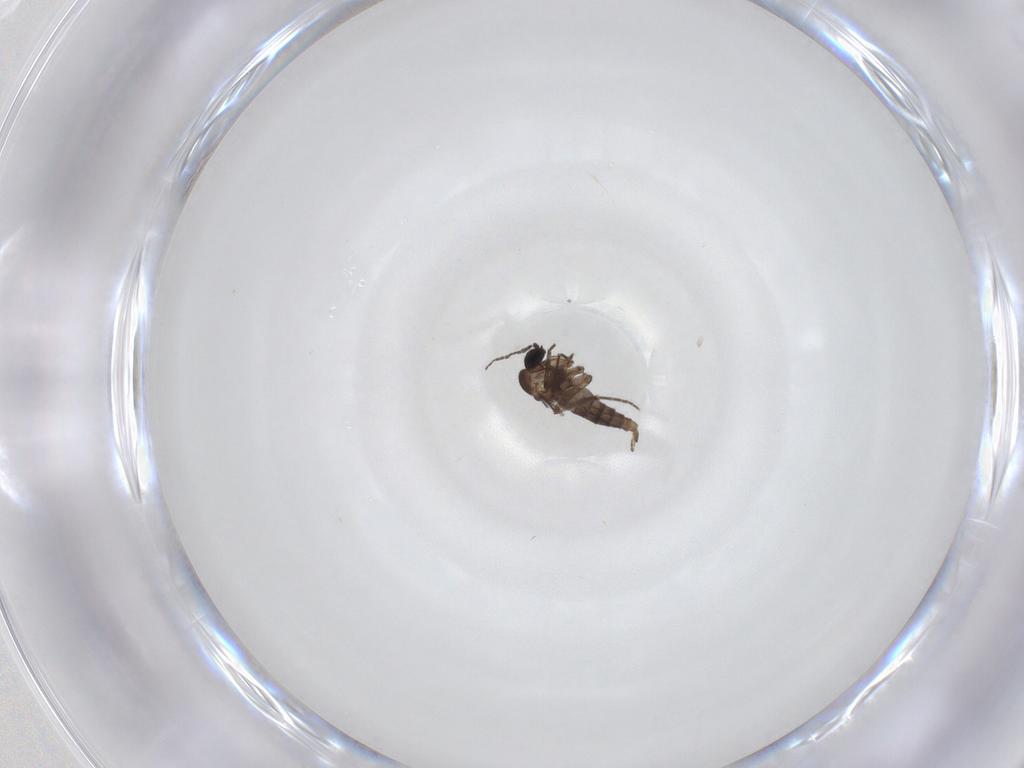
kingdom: Animalia
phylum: Arthropoda
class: Insecta
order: Diptera
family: Sciaridae
